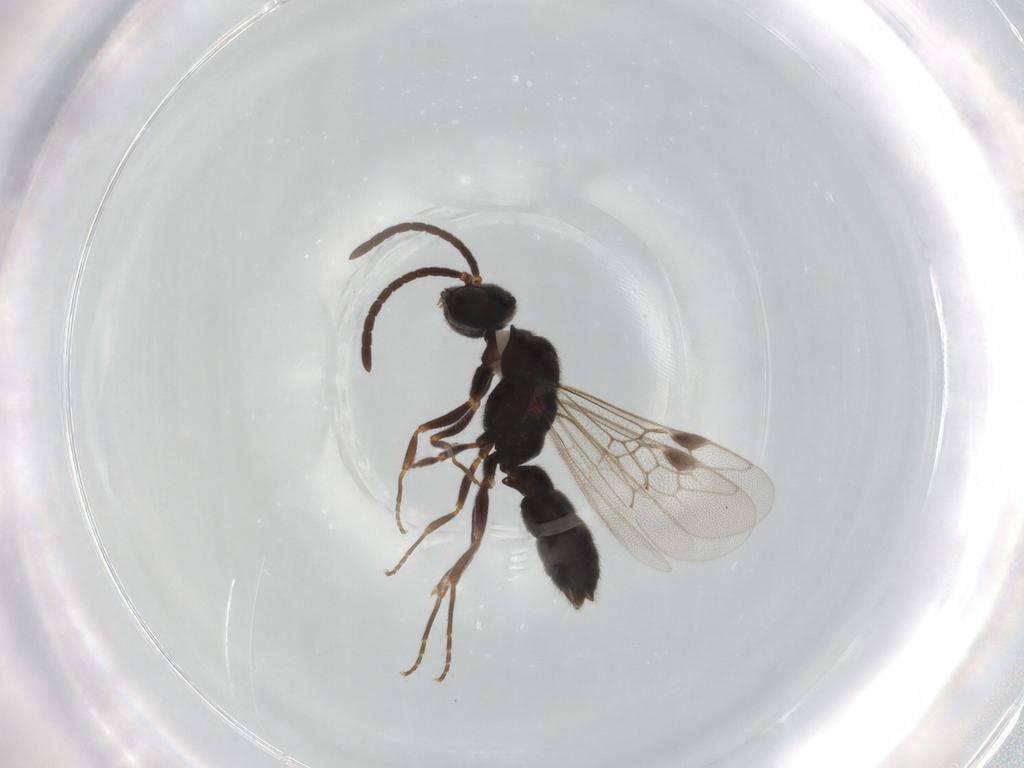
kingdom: Animalia
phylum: Arthropoda
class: Insecta
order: Hymenoptera
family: Formicidae
